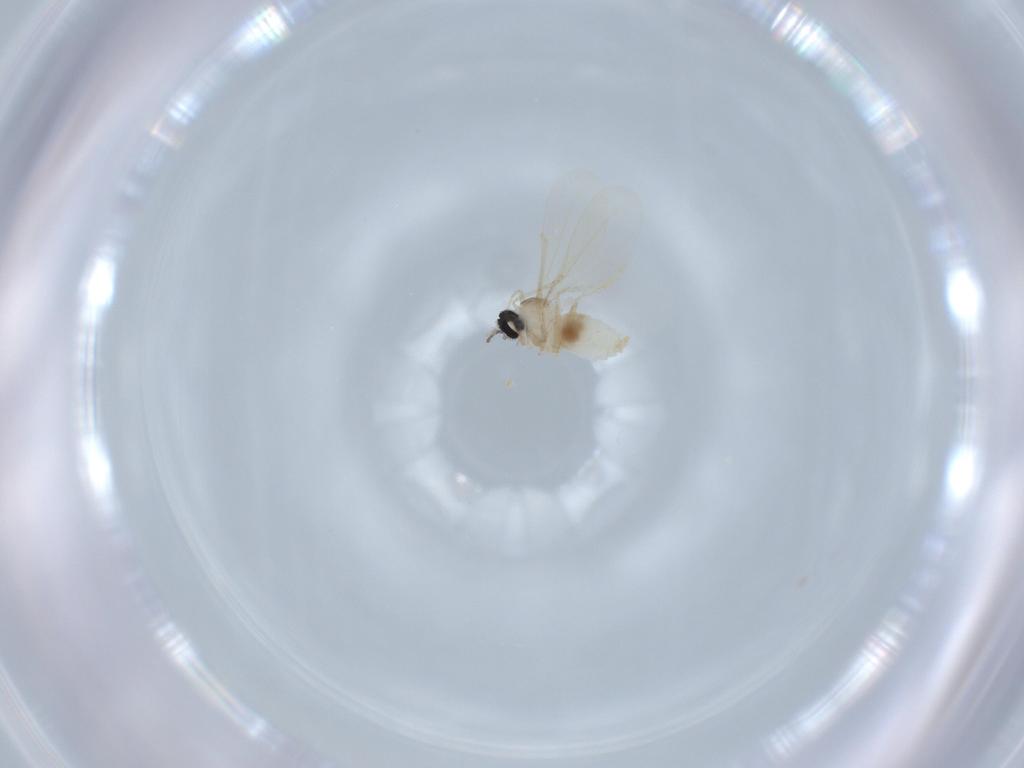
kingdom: Animalia
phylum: Arthropoda
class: Insecta
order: Diptera
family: Cecidomyiidae
